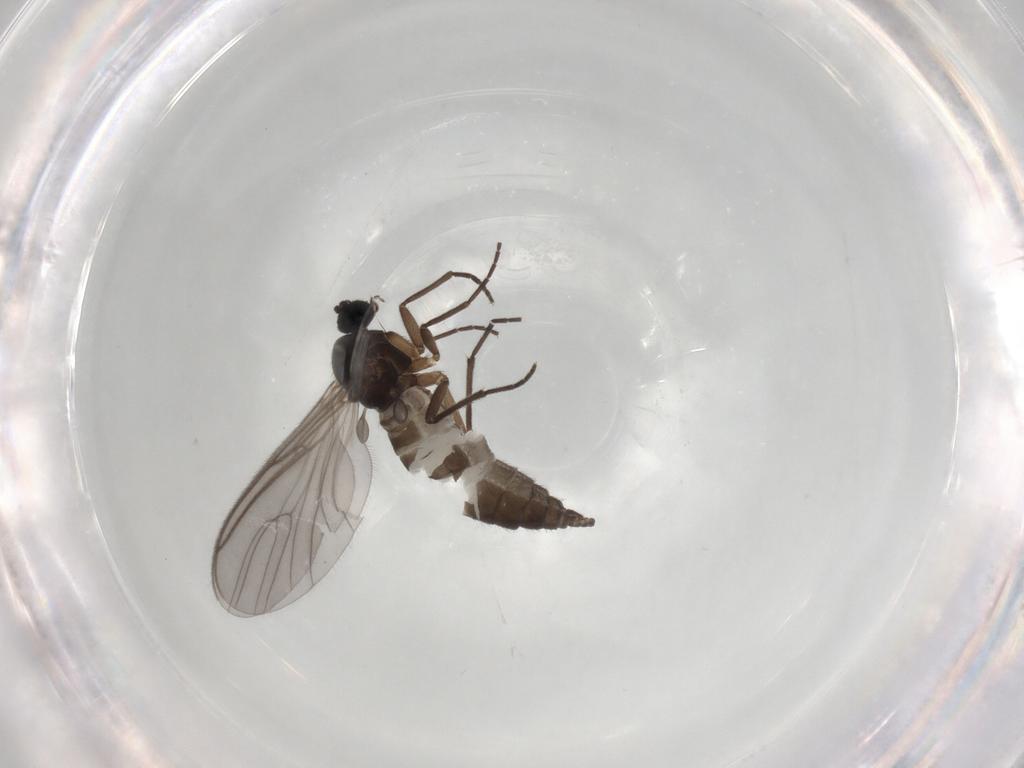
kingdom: Animalia
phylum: Arthropoda
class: Insecta
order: Diptera
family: Sciaridae
